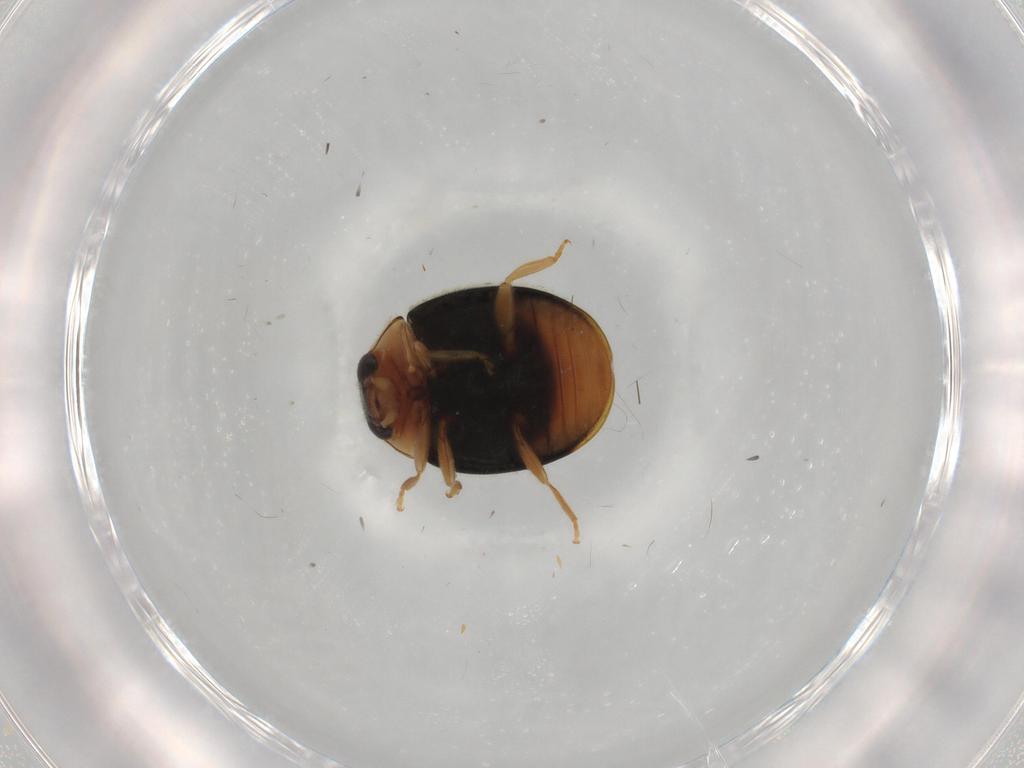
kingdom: Animalia
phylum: Arthropoda
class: Insecta
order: Coleoptera
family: Coccinellidae
